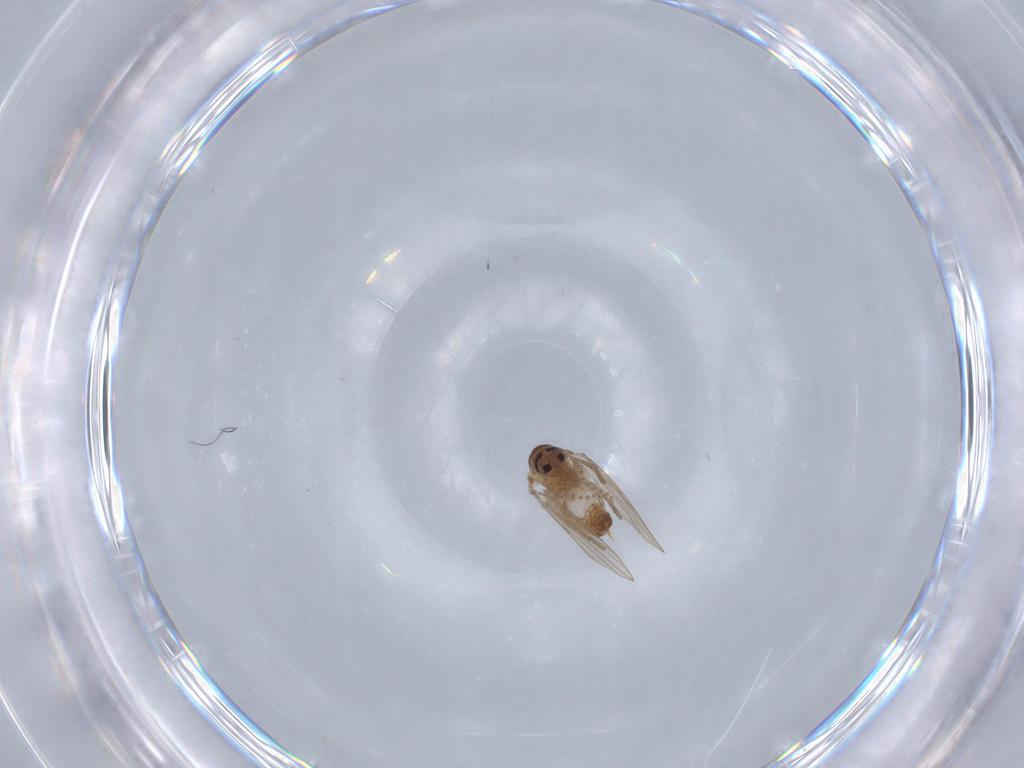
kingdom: Animalia
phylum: Arthropoda
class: Insecta
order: Diptera
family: Psychodidae
